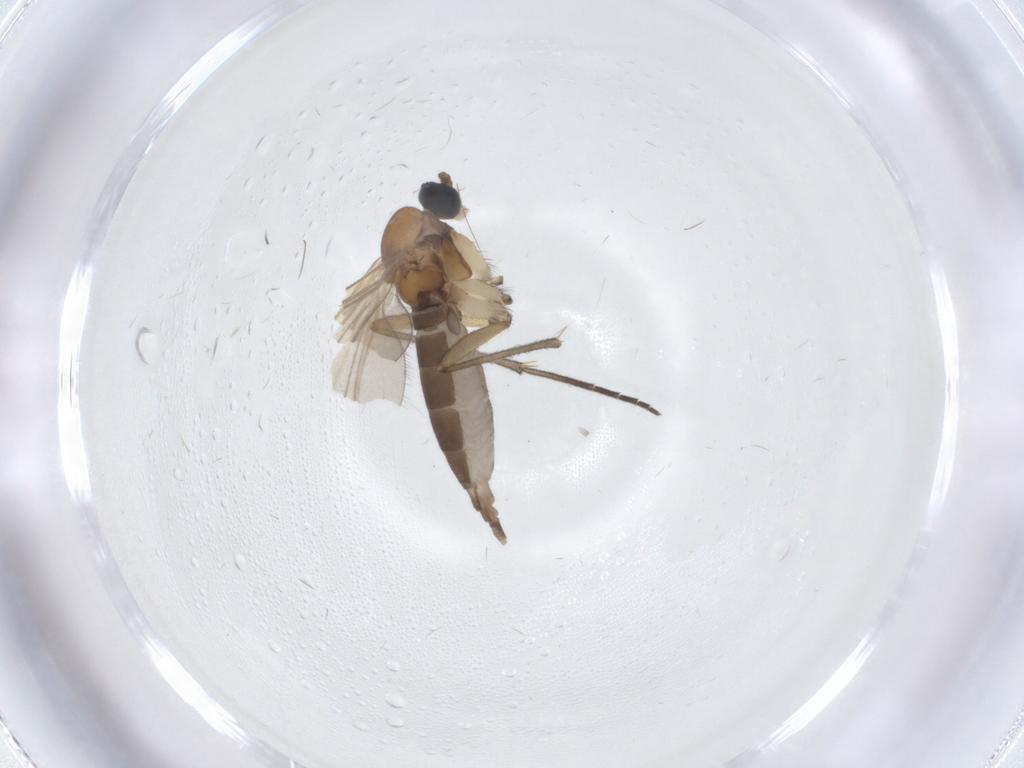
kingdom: Animalia
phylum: Arthropoda
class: Insecta
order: Diptera
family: Sciaridae
